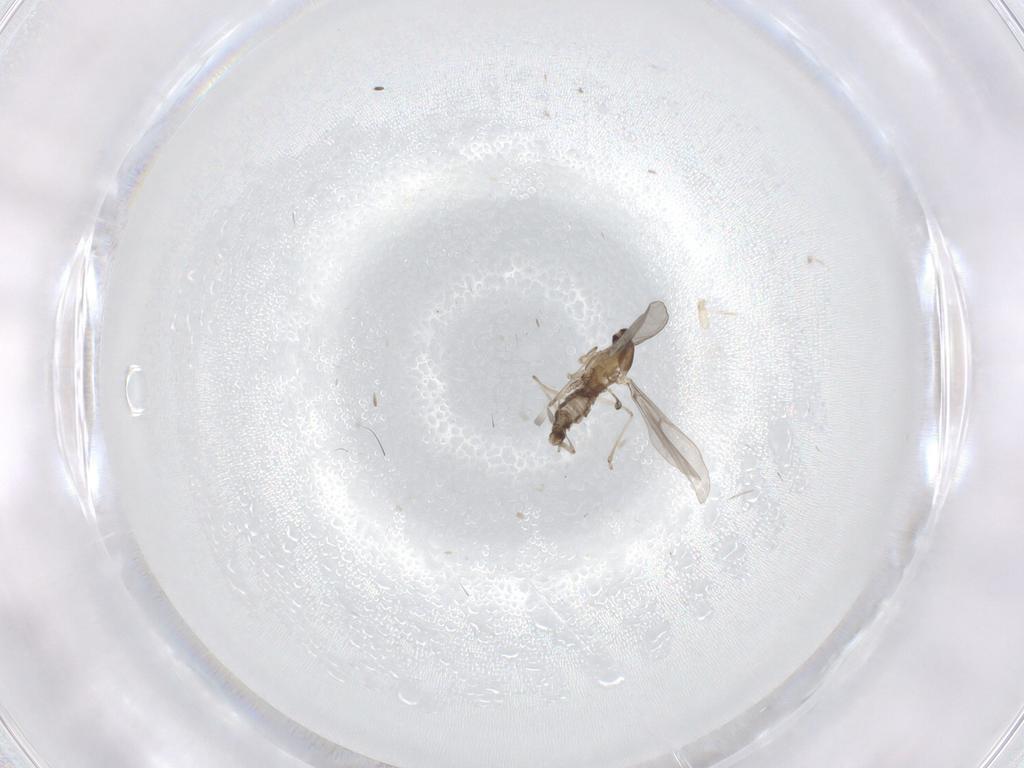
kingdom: Animalia
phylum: Arthropoda
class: Insecta
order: Diptera
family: Cecidomyiidae
